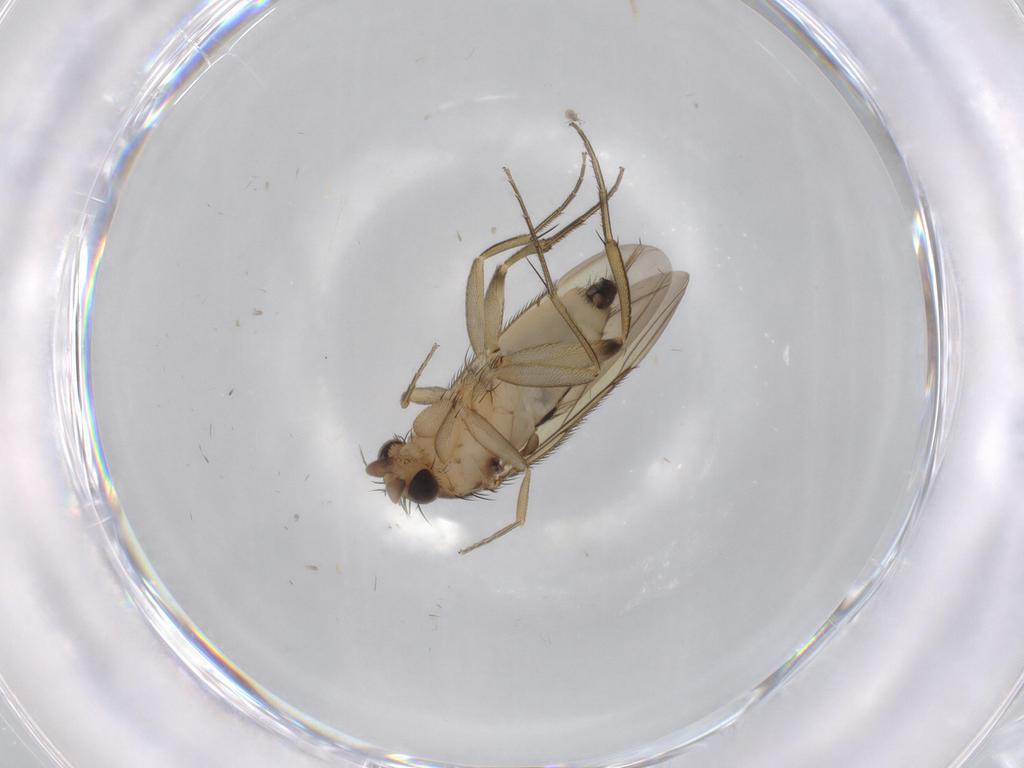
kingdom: Animalia
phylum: Arthropoda
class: Insecta
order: Diptera
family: Phoridae
